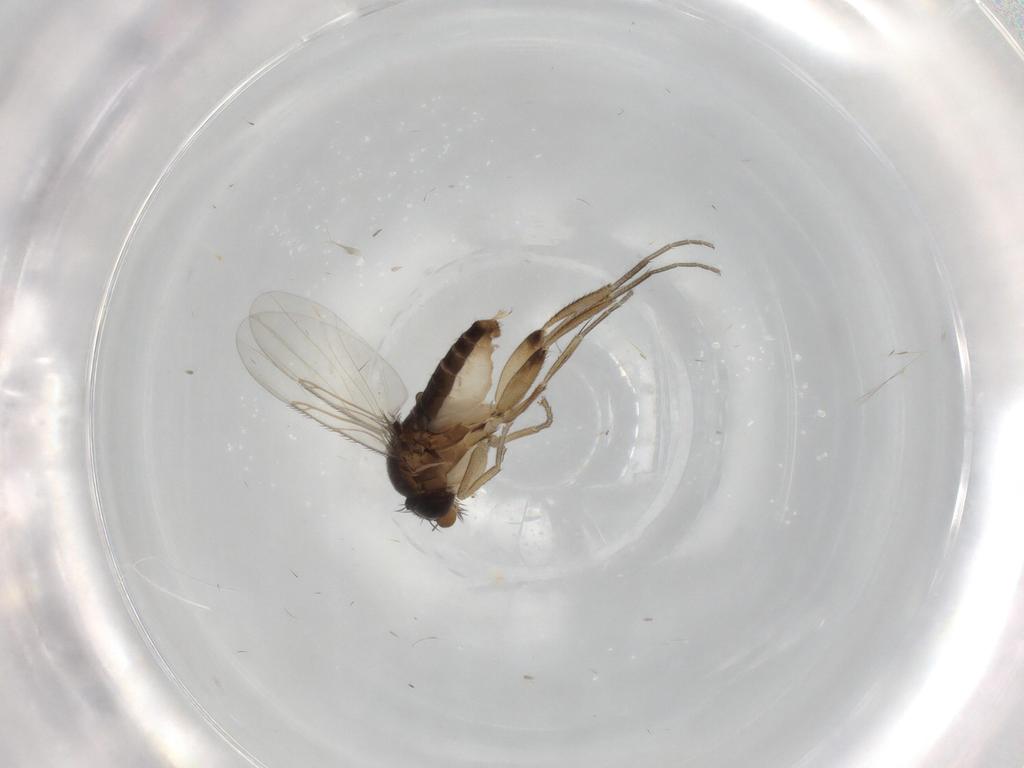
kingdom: Animalia
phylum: Arthropoda
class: Insecta
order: Diptera
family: Phoridae
